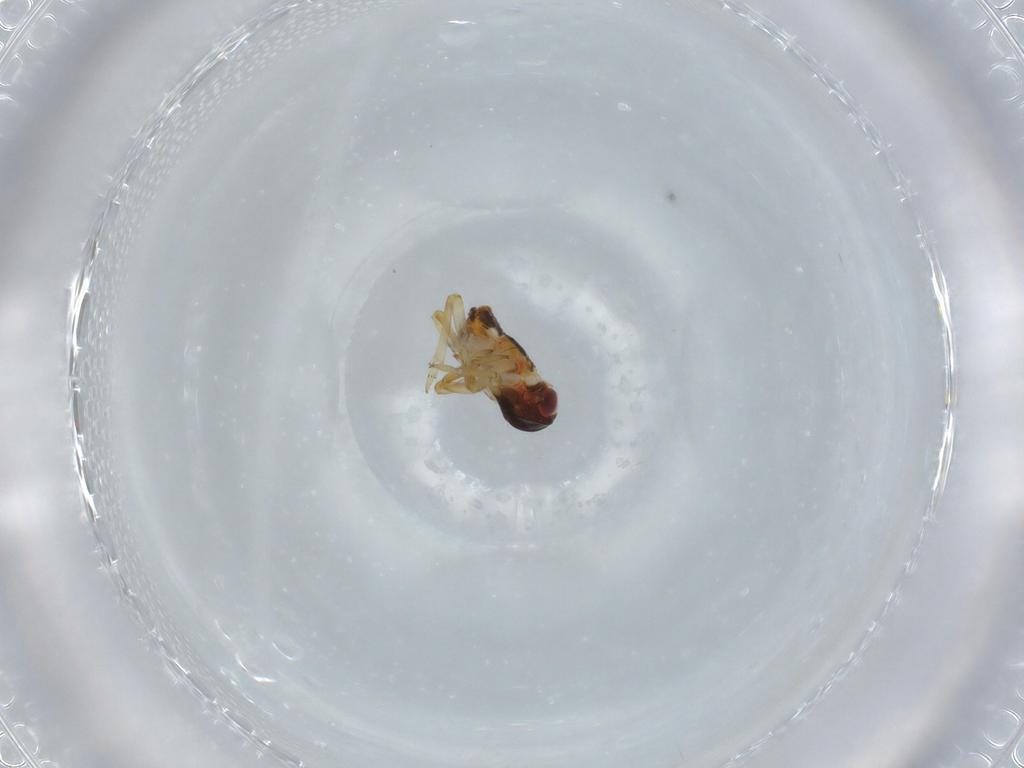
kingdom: Animalia
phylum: Arthropoda
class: Insecta
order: Hemiptera
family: Issidae
